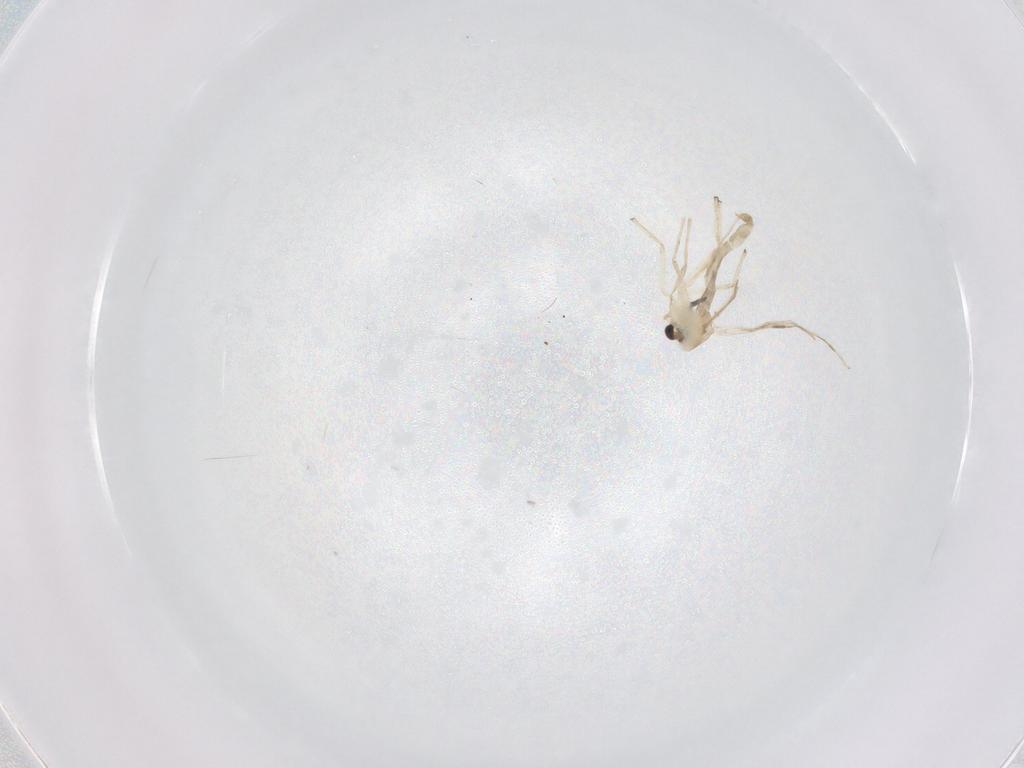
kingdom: Animalia
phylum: Arthropoda
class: Insecta
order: Diptera
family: Chironomidae
